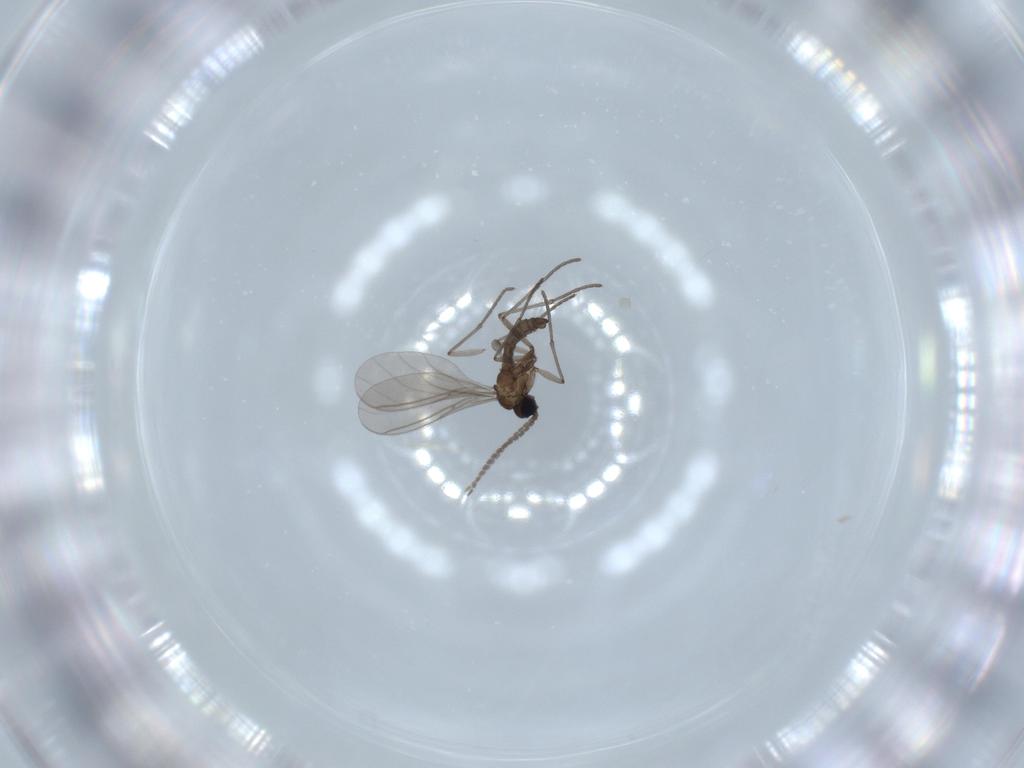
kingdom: Animalia
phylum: Arthropoda
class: Insecta
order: Diptera
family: Sciaridae
